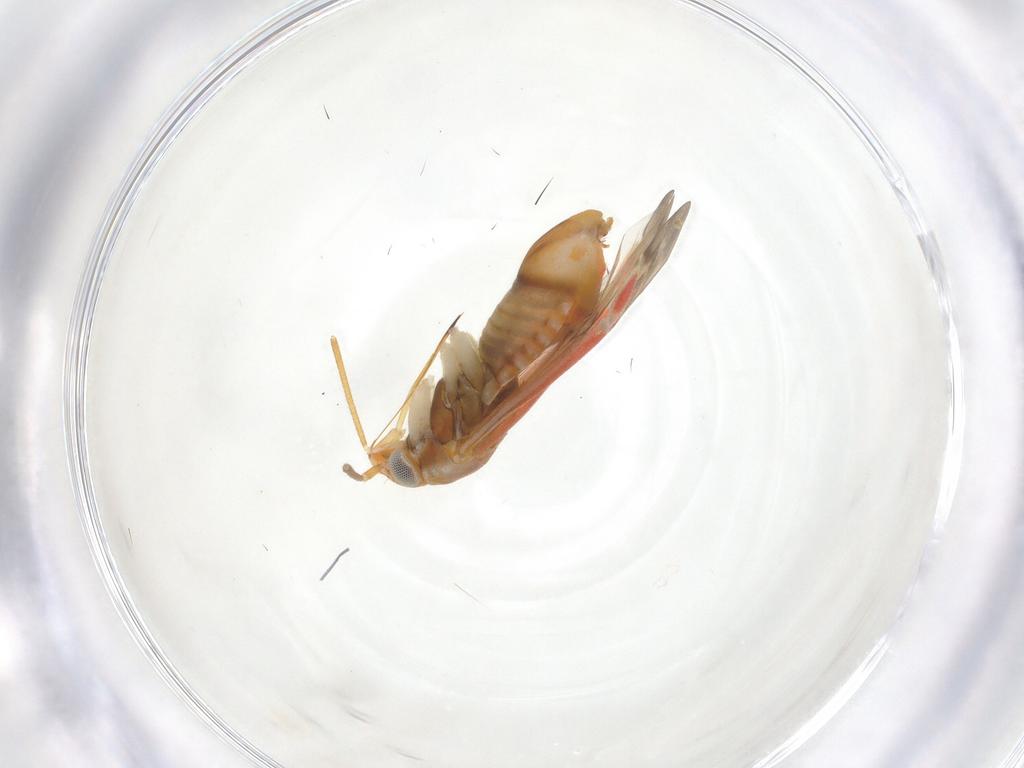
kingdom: Animalia
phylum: Arthropoda
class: Insecta
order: Hemiptera
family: Miridae
